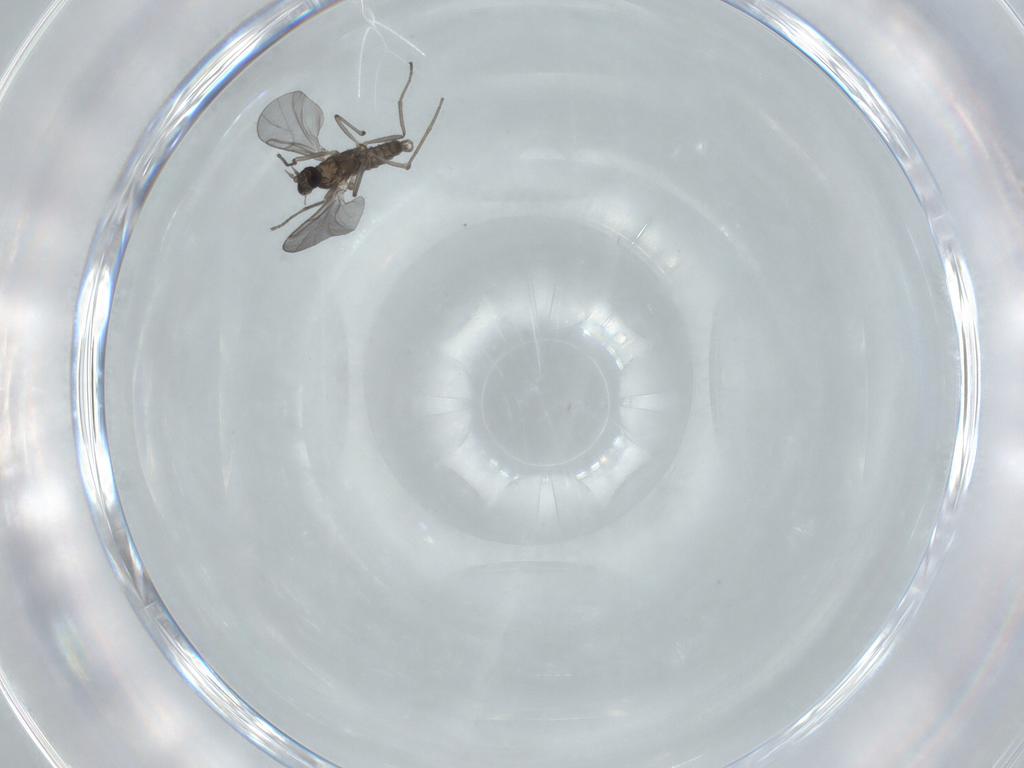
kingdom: Animalia
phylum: Arthropoda
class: Insecta
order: Diptera
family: Cecidomyiidae
